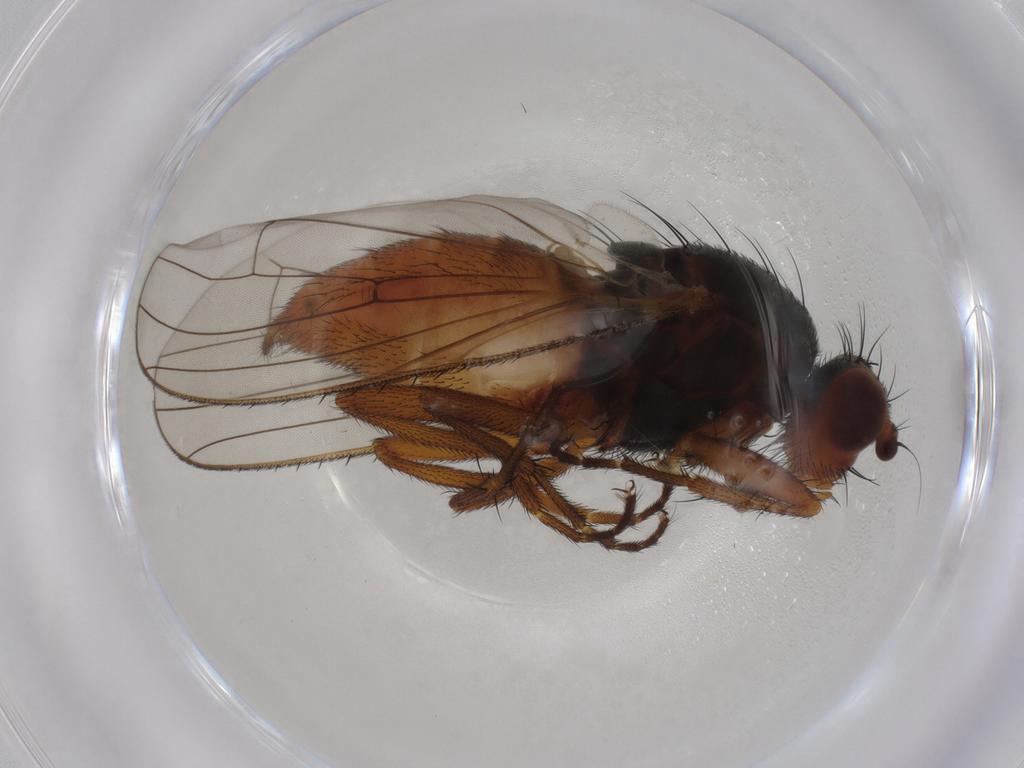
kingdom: Animalia
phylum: Arthropoda
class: Insecta
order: Diptera
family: Heleomyzidae
